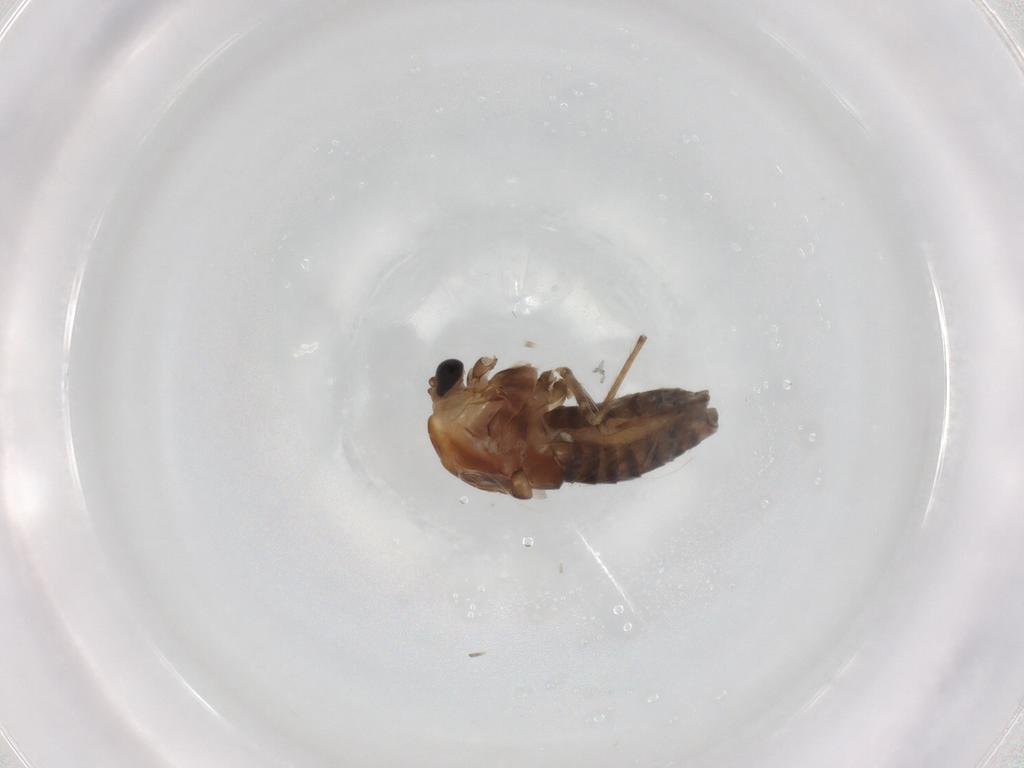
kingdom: Animalia
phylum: Arthropoda
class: Insecta
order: Diptera
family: Chironomidae
